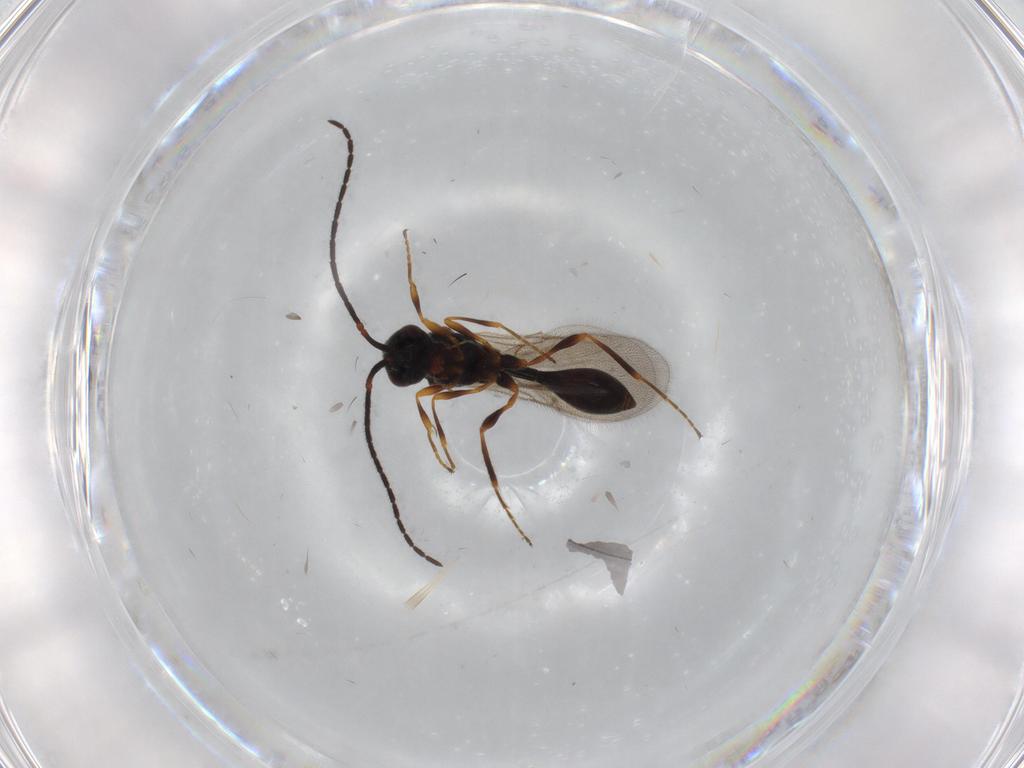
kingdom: Animalia
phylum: Arthropoda
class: Insecta
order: Hymenoptera
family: Diapriidae
